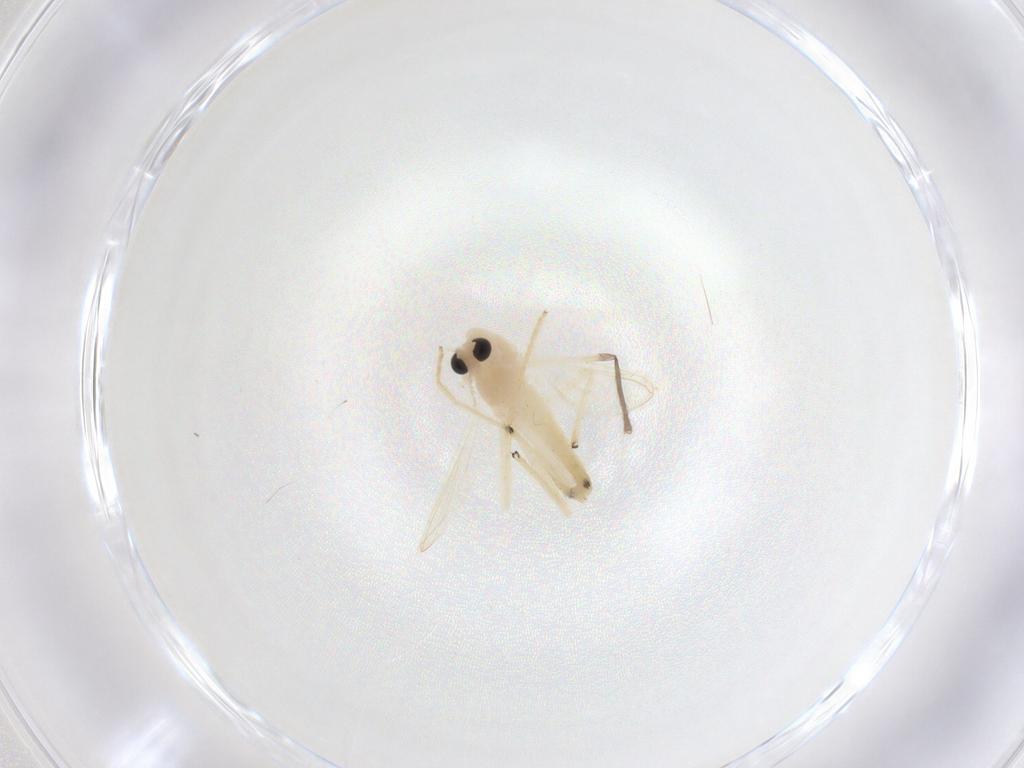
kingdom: Animalia
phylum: Arthropoda
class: Insecta
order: Diptera
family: Chironomidae
